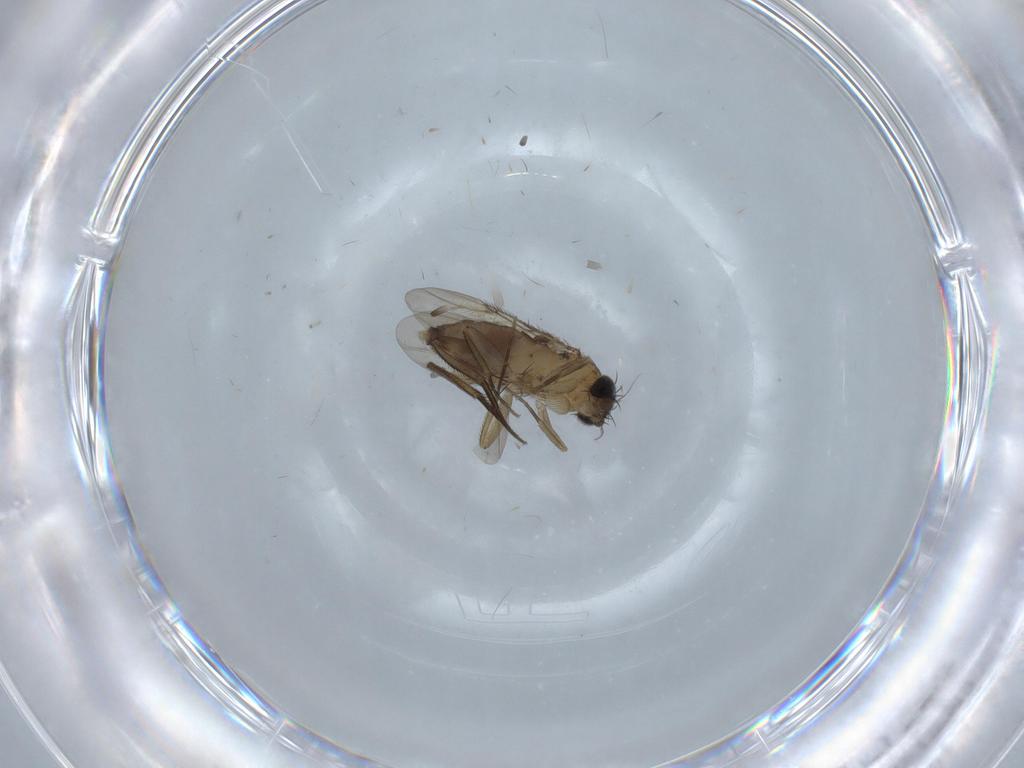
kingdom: Animalia
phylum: Arthropoda
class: Insecta
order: Diptera
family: Phoridae
